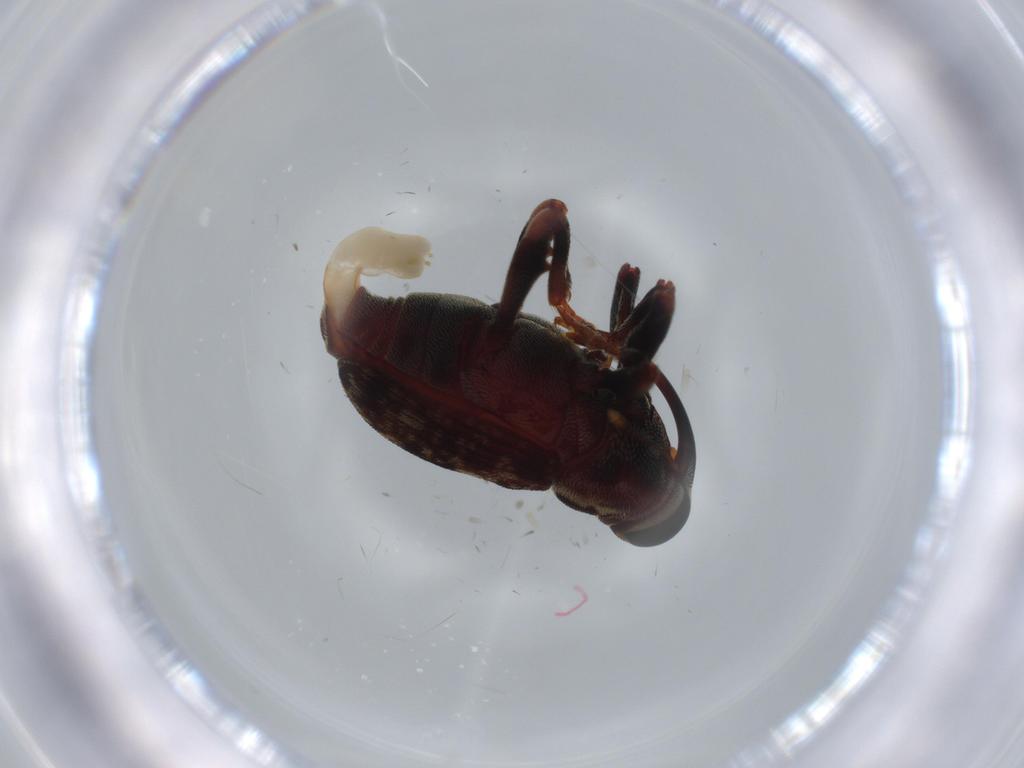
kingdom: Animalia
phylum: Arthropoda
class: Insecta
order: Coleoptera
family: Curculionidae
